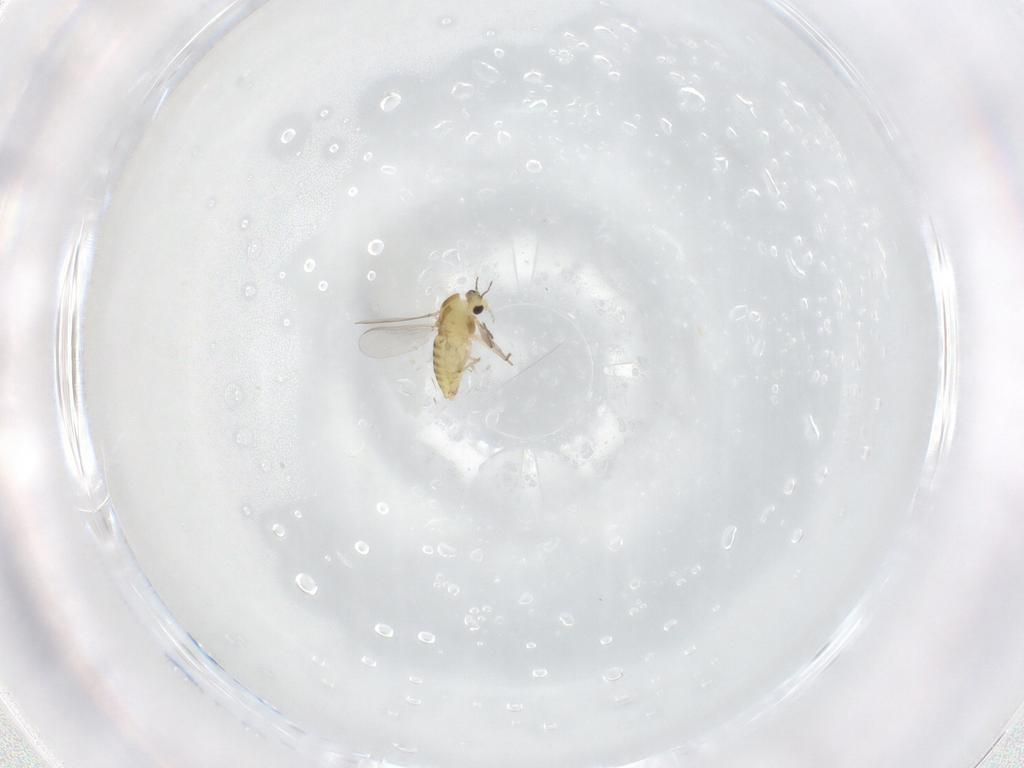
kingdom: Animalia
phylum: Arthropoda
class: Insecta
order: Diptera
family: Chironomidae
